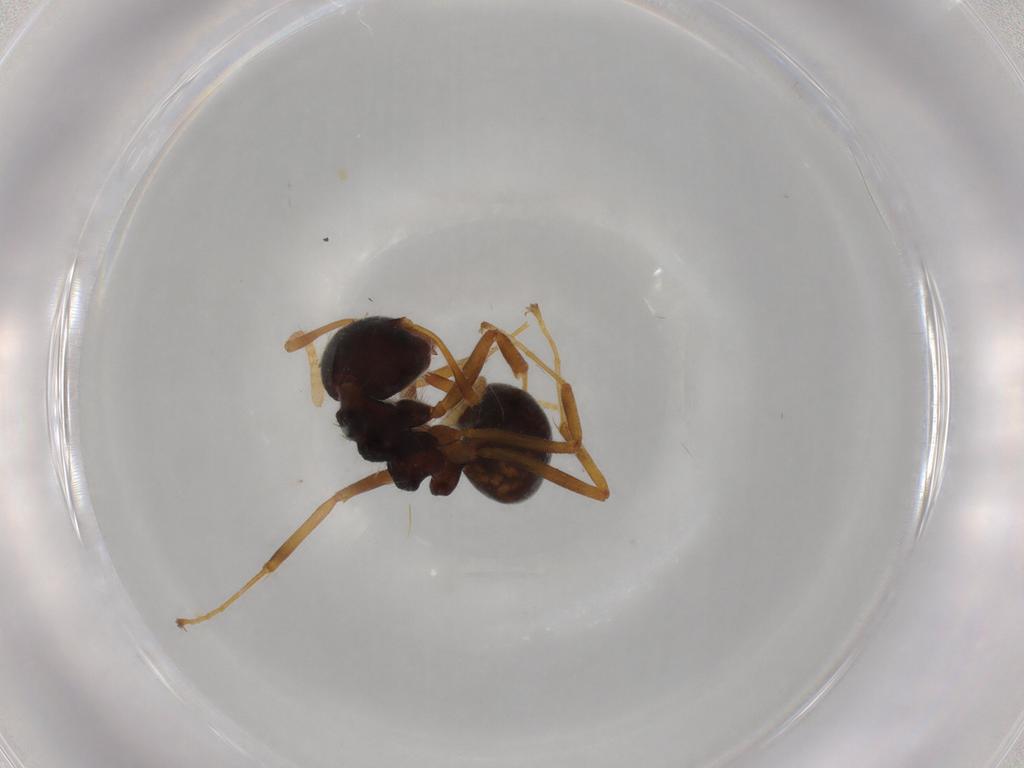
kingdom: Animalia
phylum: Arthropoda
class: Insecta
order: Hymenoptera
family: Formicidae
